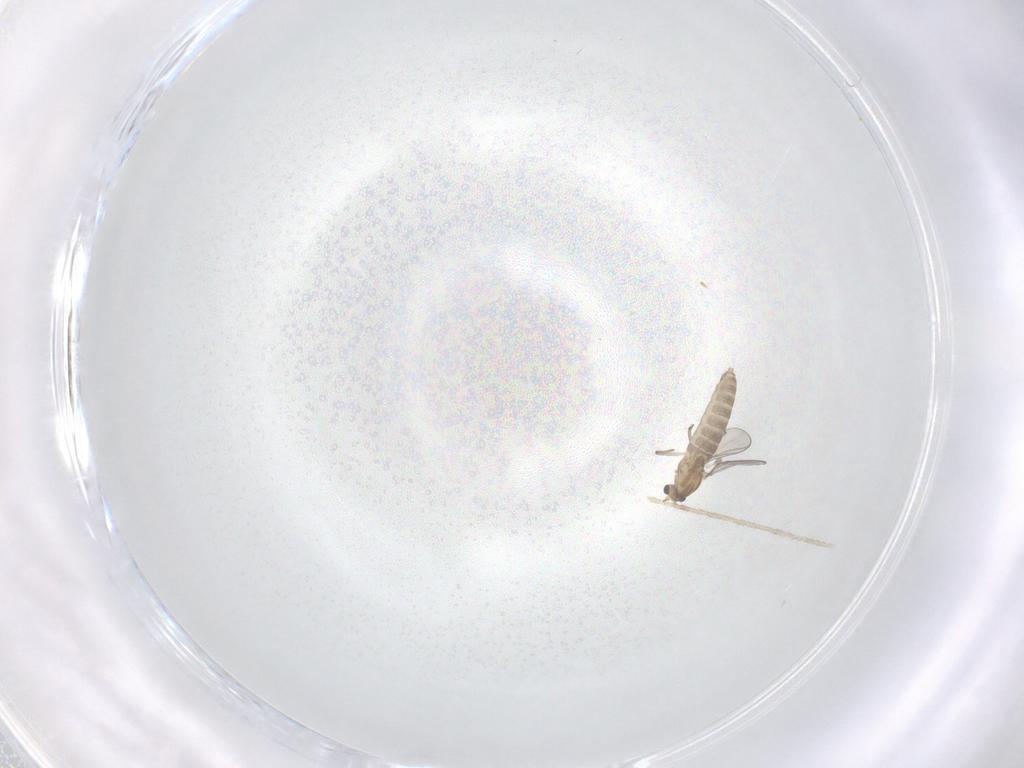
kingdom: Animalia
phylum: Arthropoda
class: Insecta
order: Diptera
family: Chironomidae
